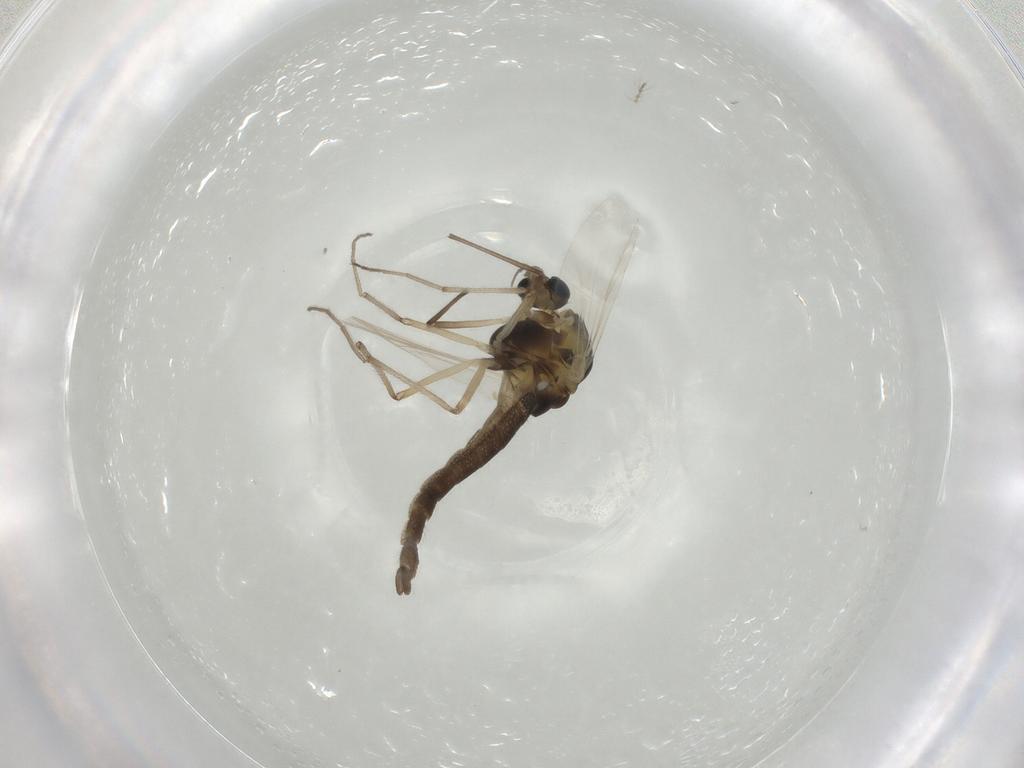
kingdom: Animalia
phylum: Arthropoda
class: Insecta
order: Diptera
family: Chironomidae
